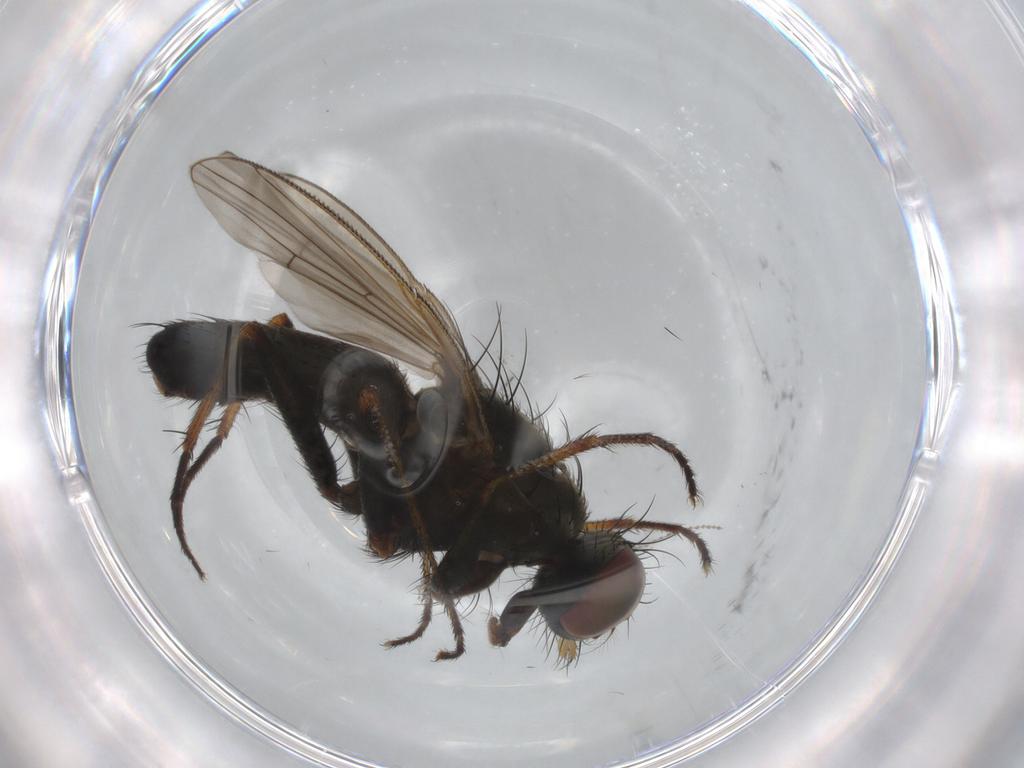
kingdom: Animalia
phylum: Arthropoda
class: Insecta
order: Diptera
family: Muscidae
